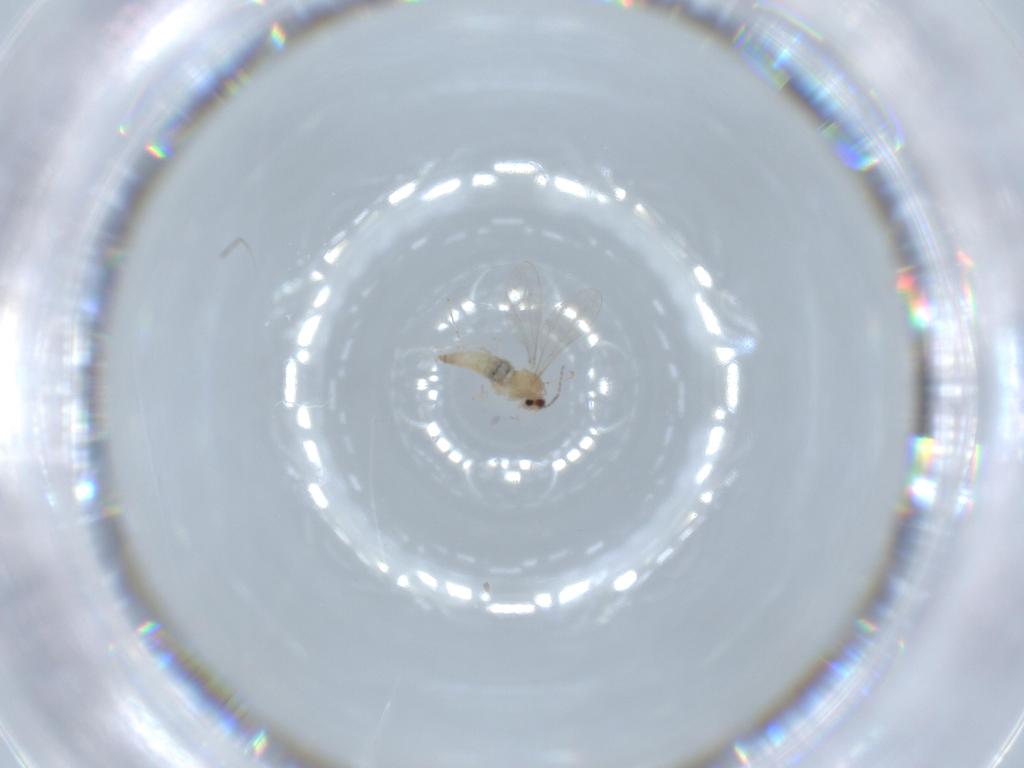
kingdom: Animalia
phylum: Arthropoda
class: Insecta
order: Diptera
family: Cecidomyiidae
